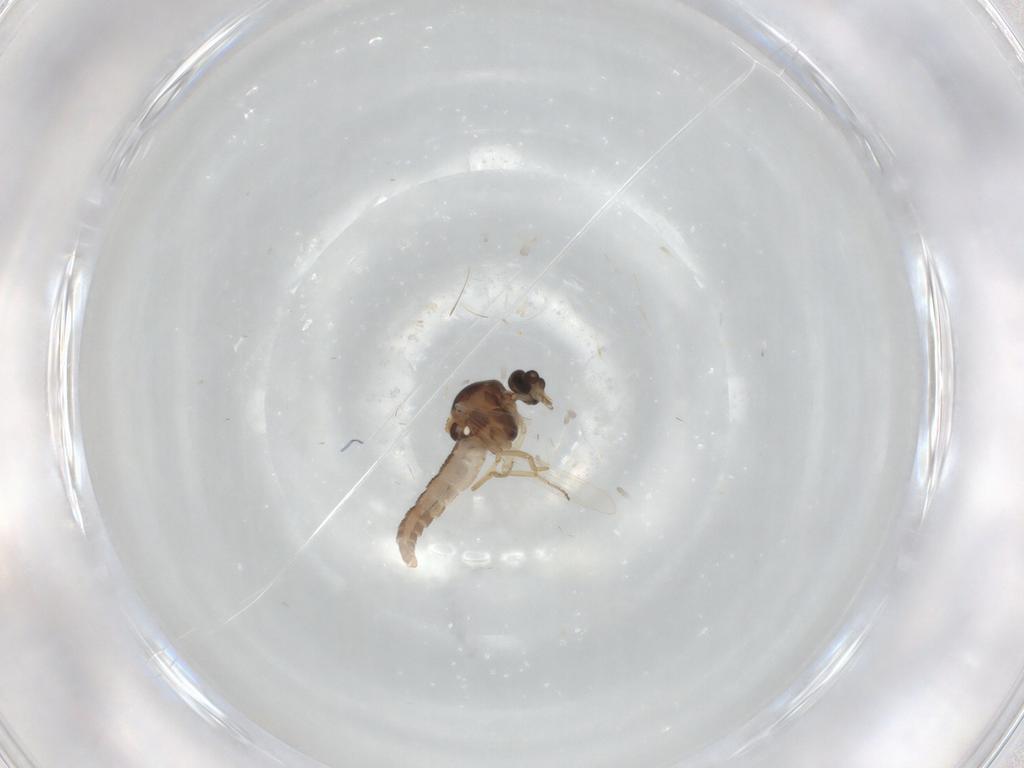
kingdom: Animalia
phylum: Arthropoda
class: Insecta
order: Diptera
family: Ceratopogonidae
